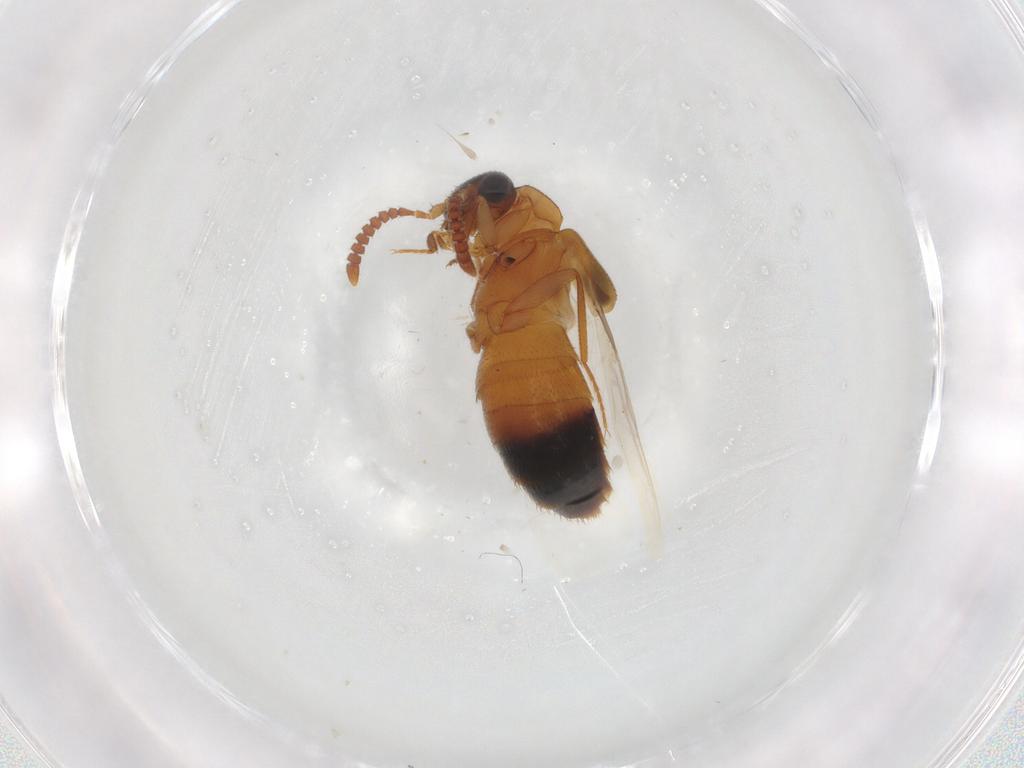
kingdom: Animalia
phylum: Arthropoda
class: Insecta
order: Coleoptera
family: Staphylinidae
